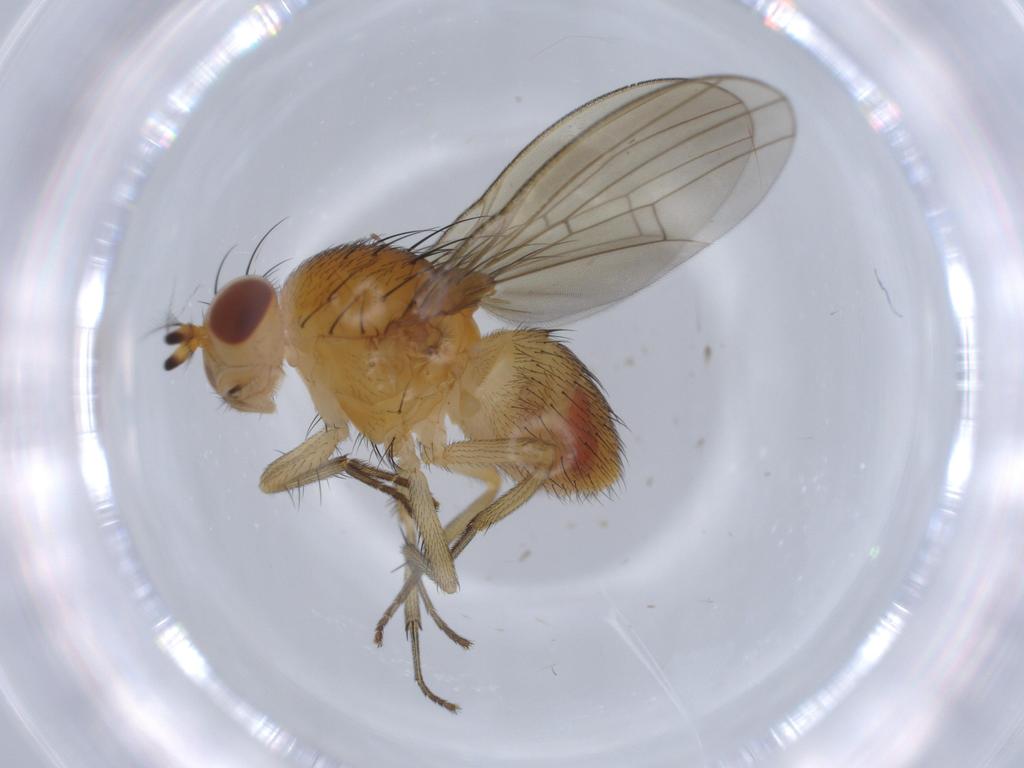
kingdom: Animalia
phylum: Arthropoda
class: Insecta
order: Diptera
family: Lauxaniidae
